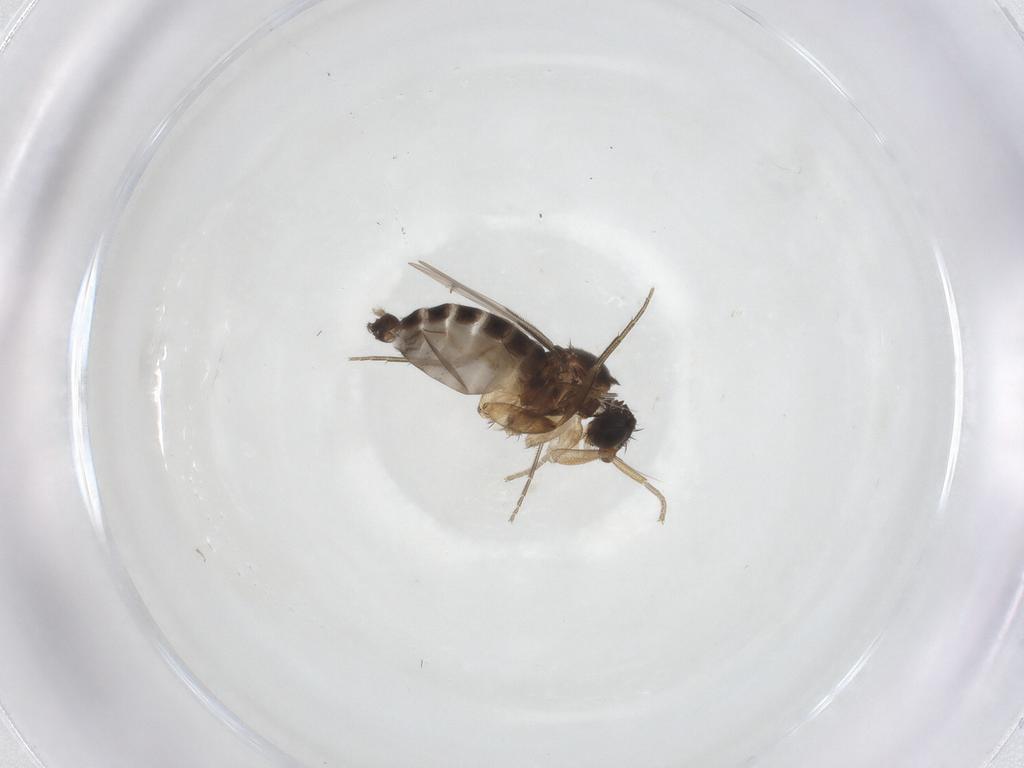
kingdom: Animalia
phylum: Arthropoda
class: Insecta
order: Diptera
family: Phoridae
